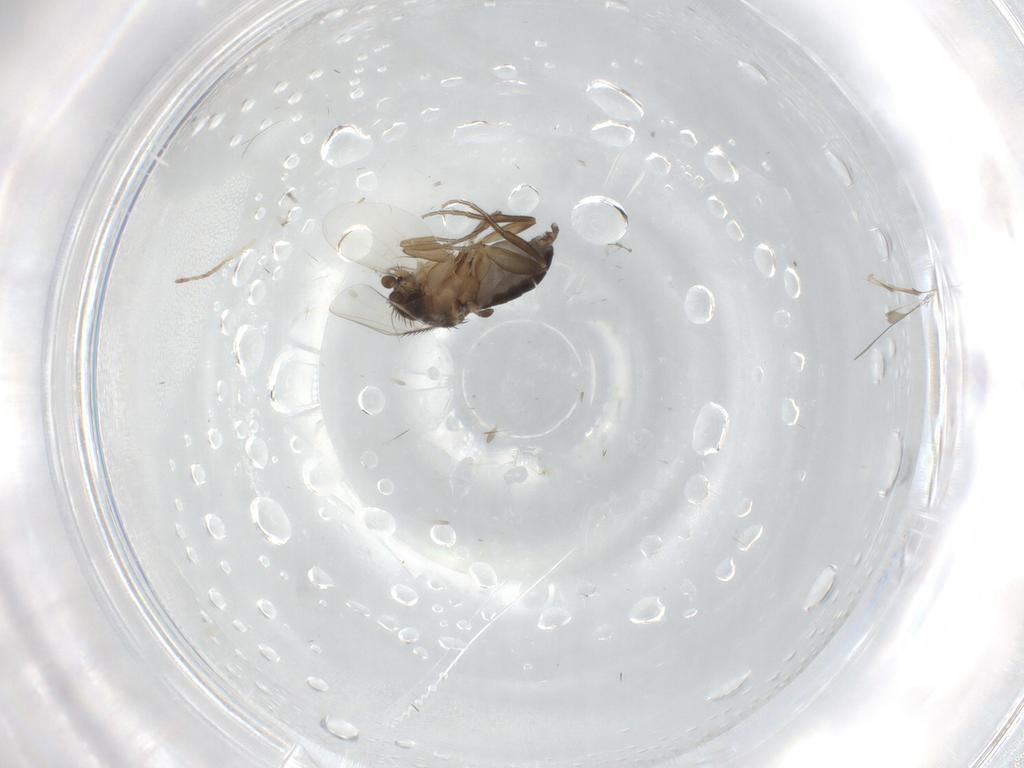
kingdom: Animalia
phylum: Arthropoda
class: Insecta
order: Diptera
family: Phoridae
